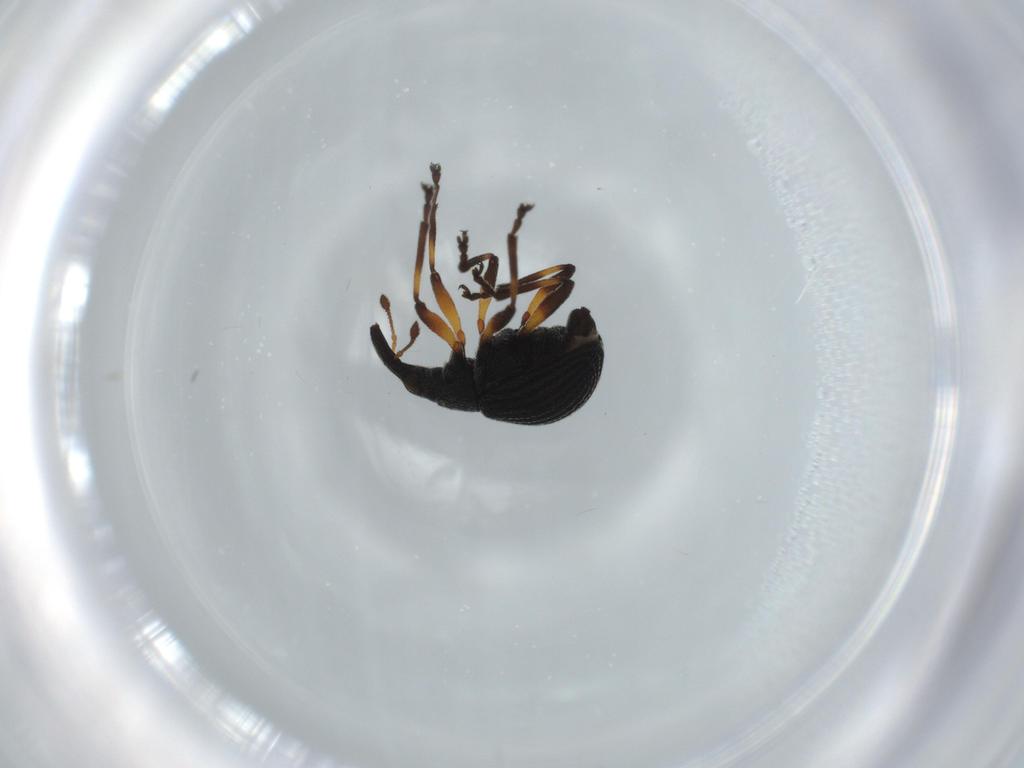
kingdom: Animalia
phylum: Arthropoda
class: Insecta
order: Coleoptera
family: Brentidae
